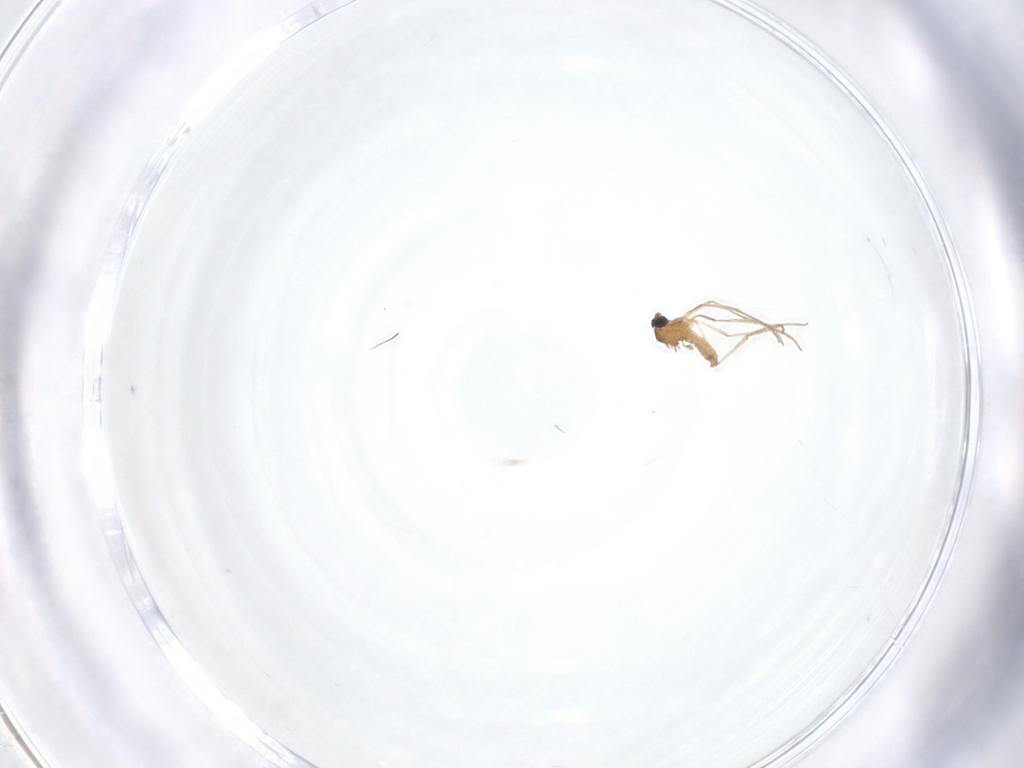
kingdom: Animalia
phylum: Arthropoda
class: Insecta
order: Diptera
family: Cecidomyiidae
